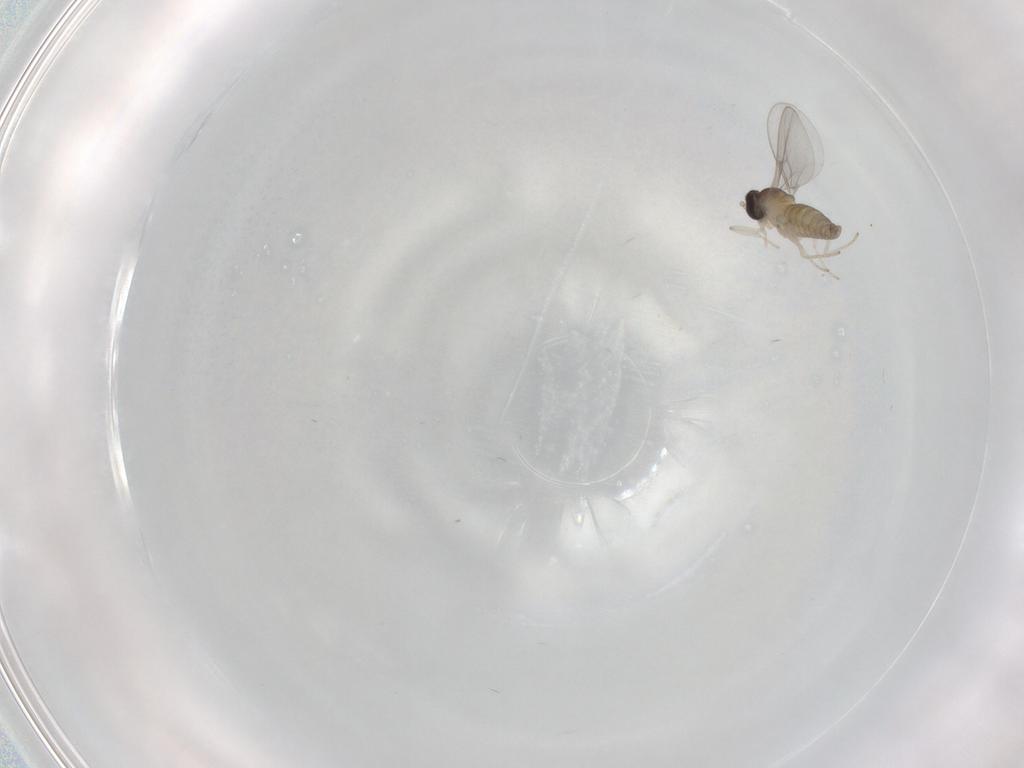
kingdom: Animalia
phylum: Arthropoda
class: Insecta
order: Diptera
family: Cecidomyiidae
